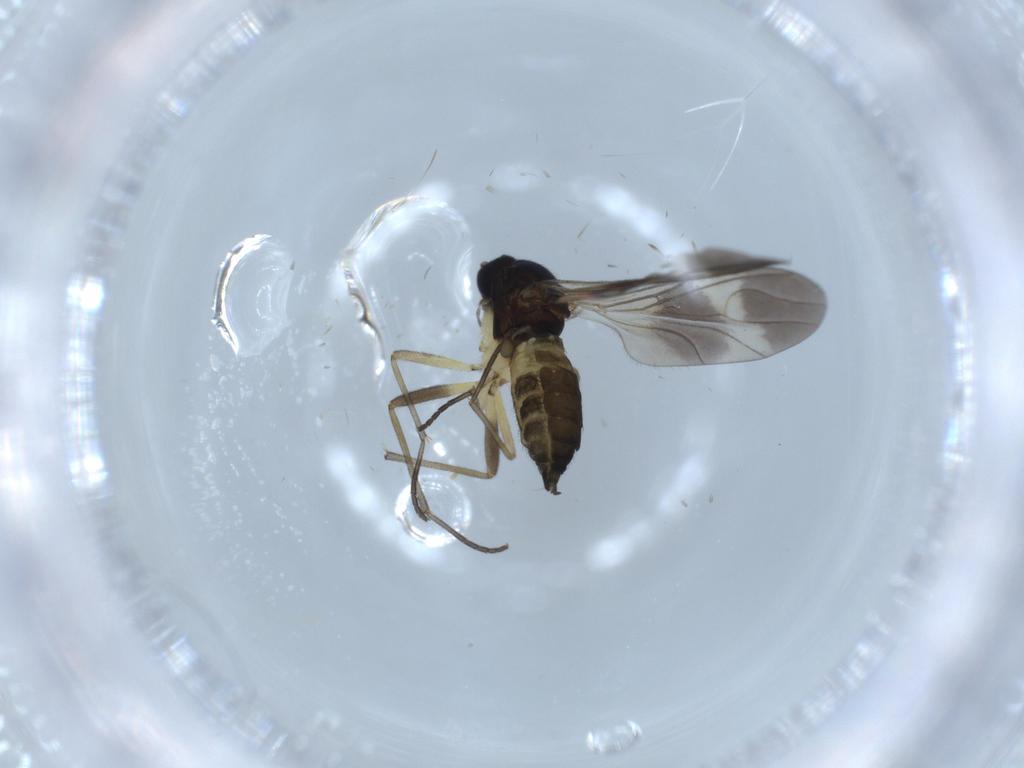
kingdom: Animalia
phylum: Arthropoda
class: Insecta
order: Diptera
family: Sciaridae
